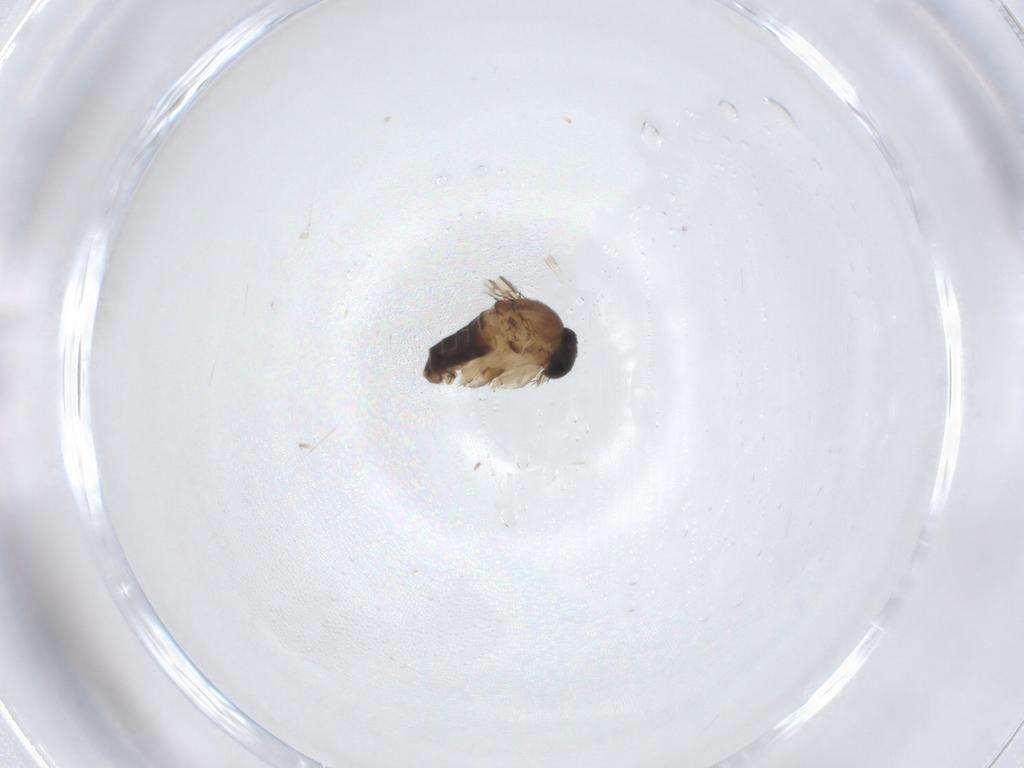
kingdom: Animalia
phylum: Arthropoda
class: Insecta
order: Diptera
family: Phoridae
